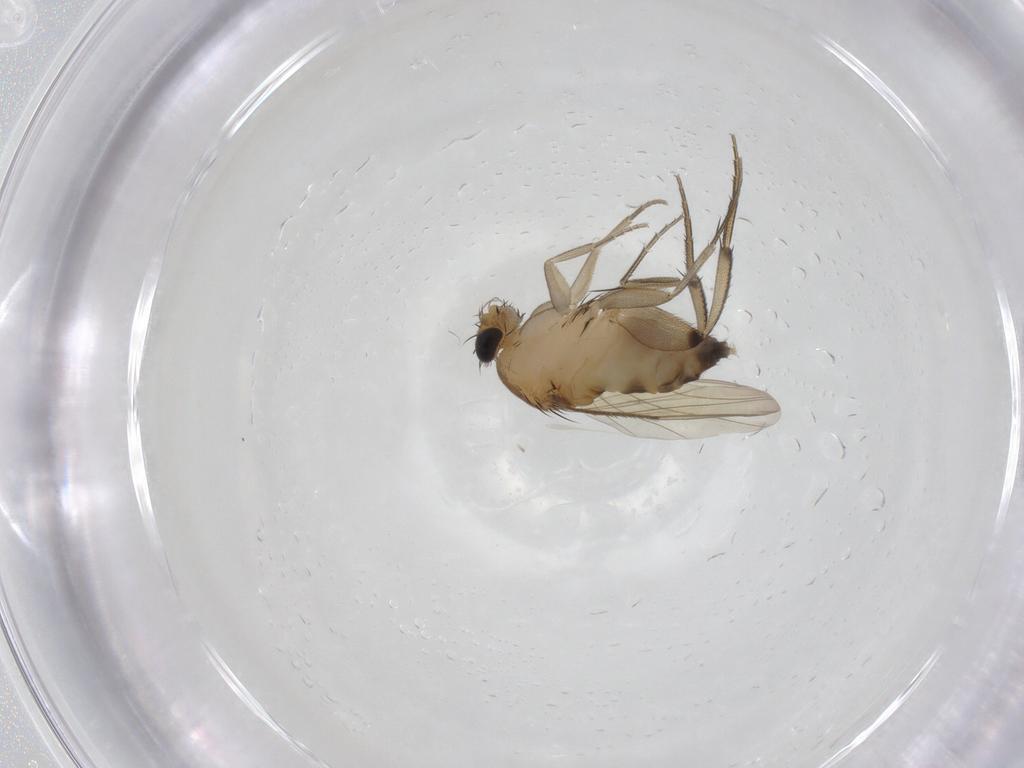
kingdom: Animalia
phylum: Arthropoda
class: Insecta
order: Diptera
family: Phoridae
